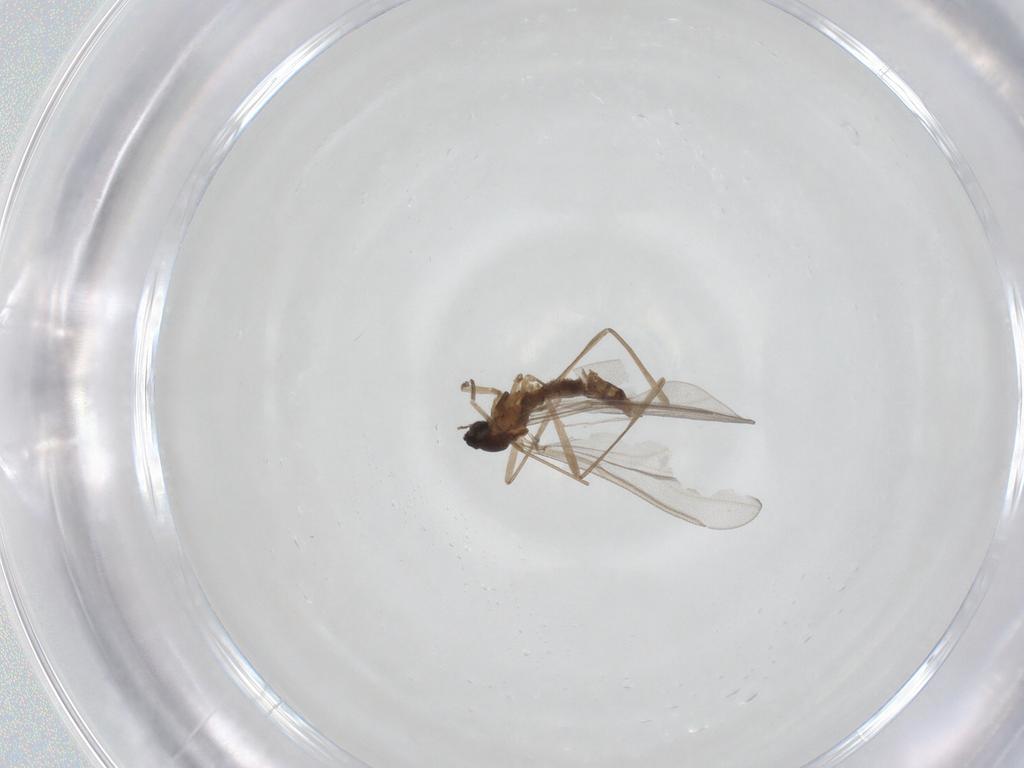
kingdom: Animalia
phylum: Arthropoda
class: Insecta
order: Diptera
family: Cecidomyiidae
